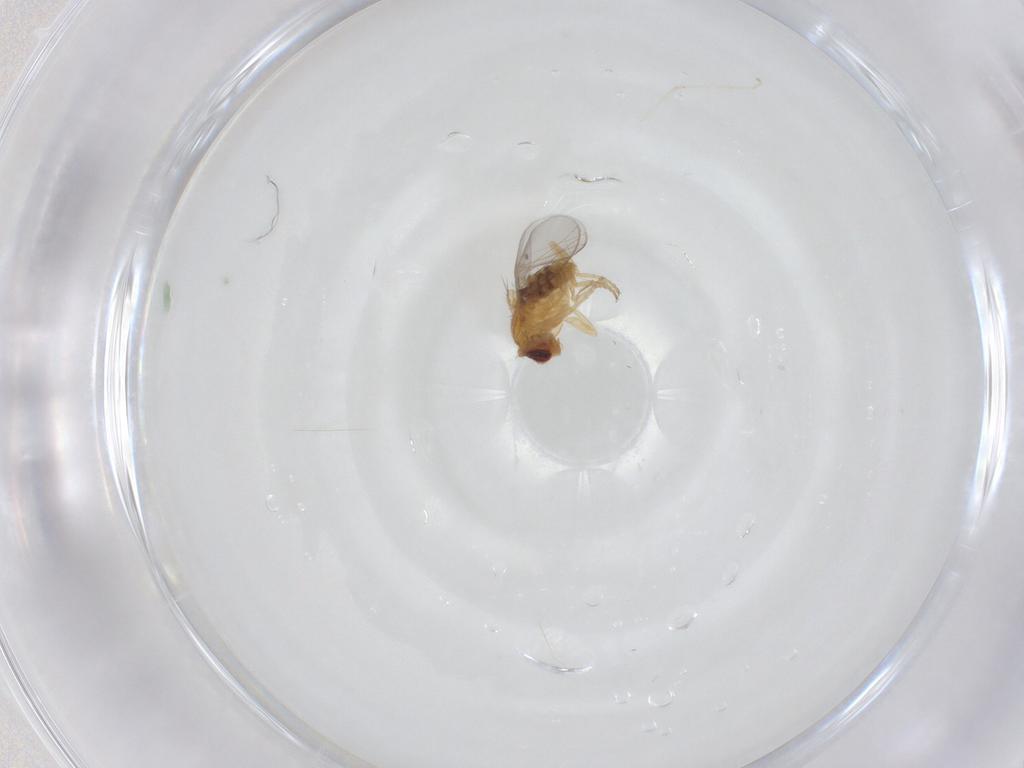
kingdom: Animalia
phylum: Arthropoda
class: Insecta
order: Diptera
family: Chloropidae
